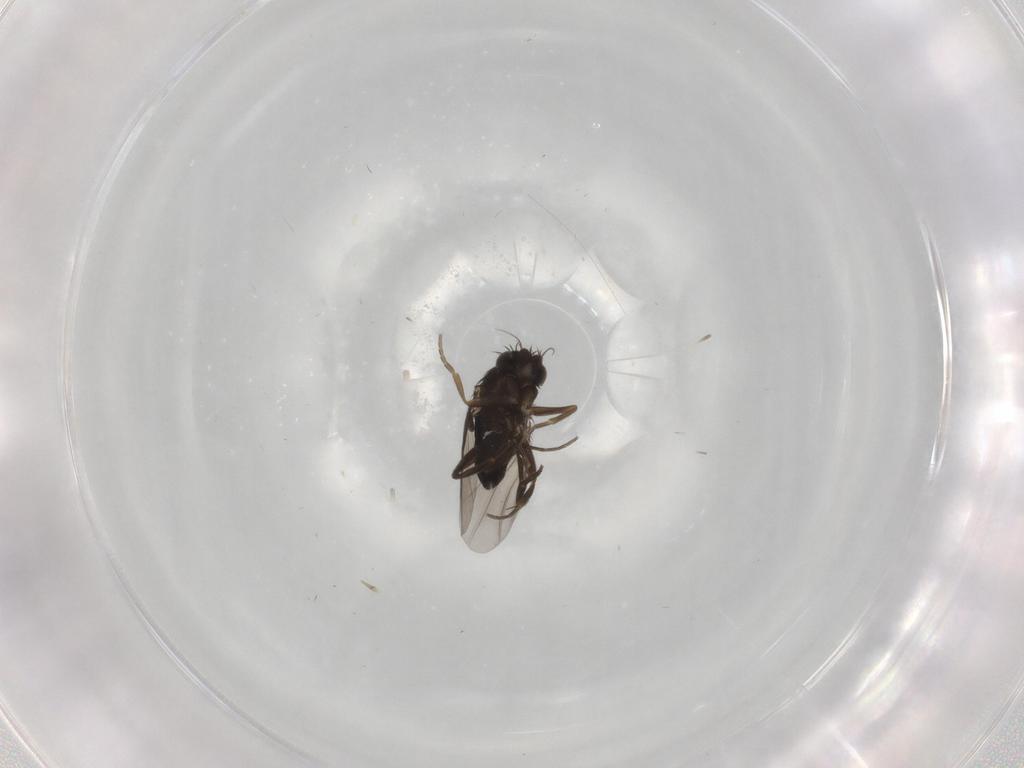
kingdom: Animalia
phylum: Arthropoda
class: Insecta
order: Diptera
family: Phoridae
